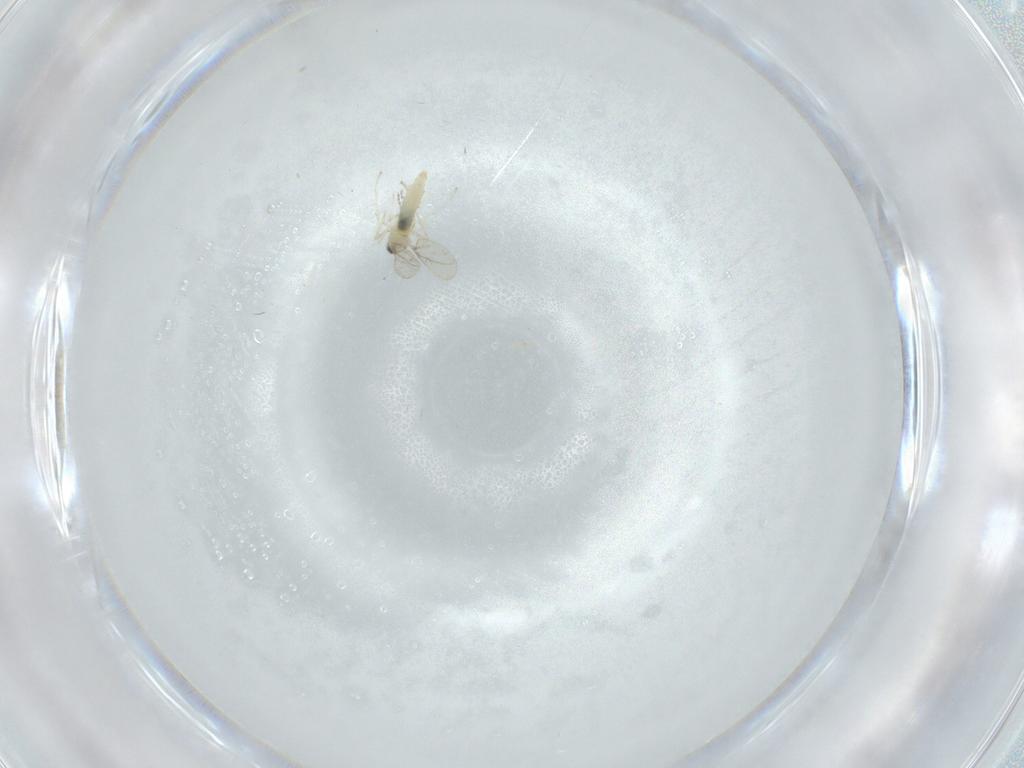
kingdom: Animalia
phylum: Arthropoda
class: Insecta
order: Diptera
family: Cecidomyiidae
